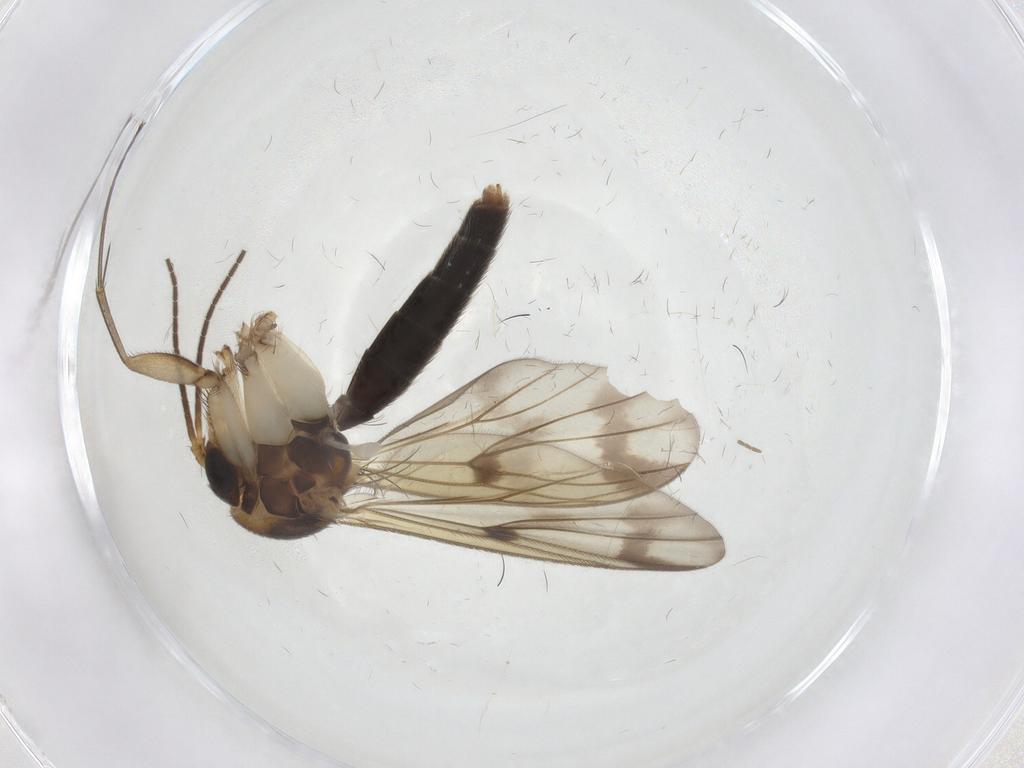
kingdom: Animalia
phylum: Arthropoda
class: Insecta
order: Diptera
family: Mycetophilidae
